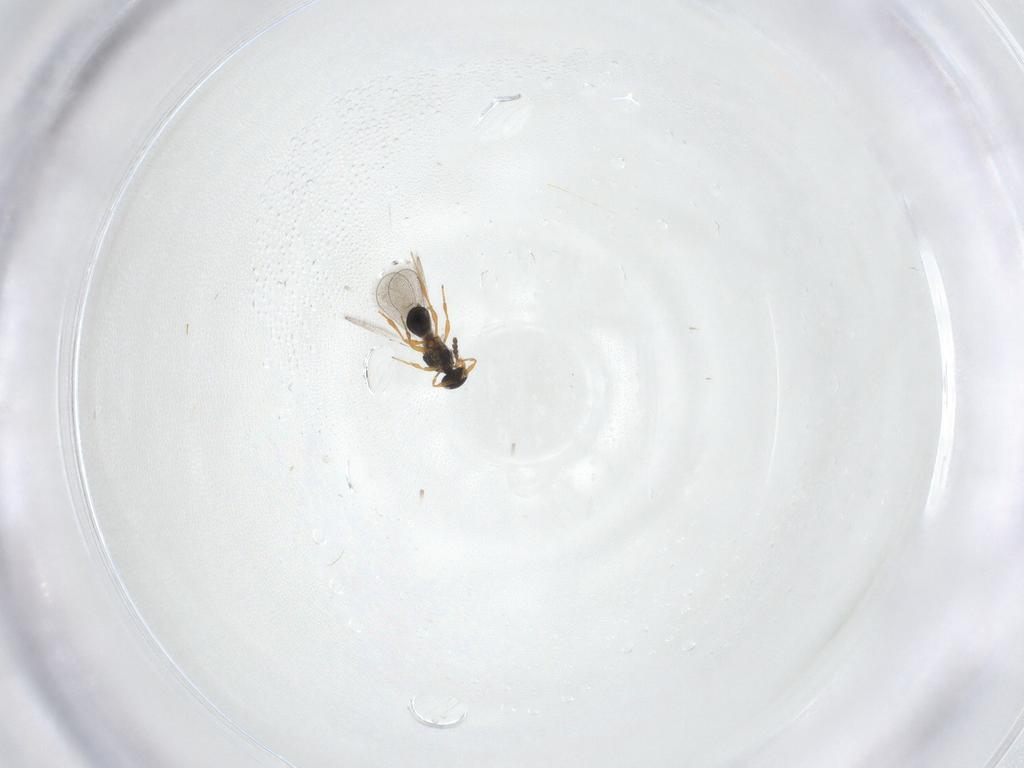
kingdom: Animalia
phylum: Arthropoda
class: Insecta
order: Hymenoptera
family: Platygastridae
